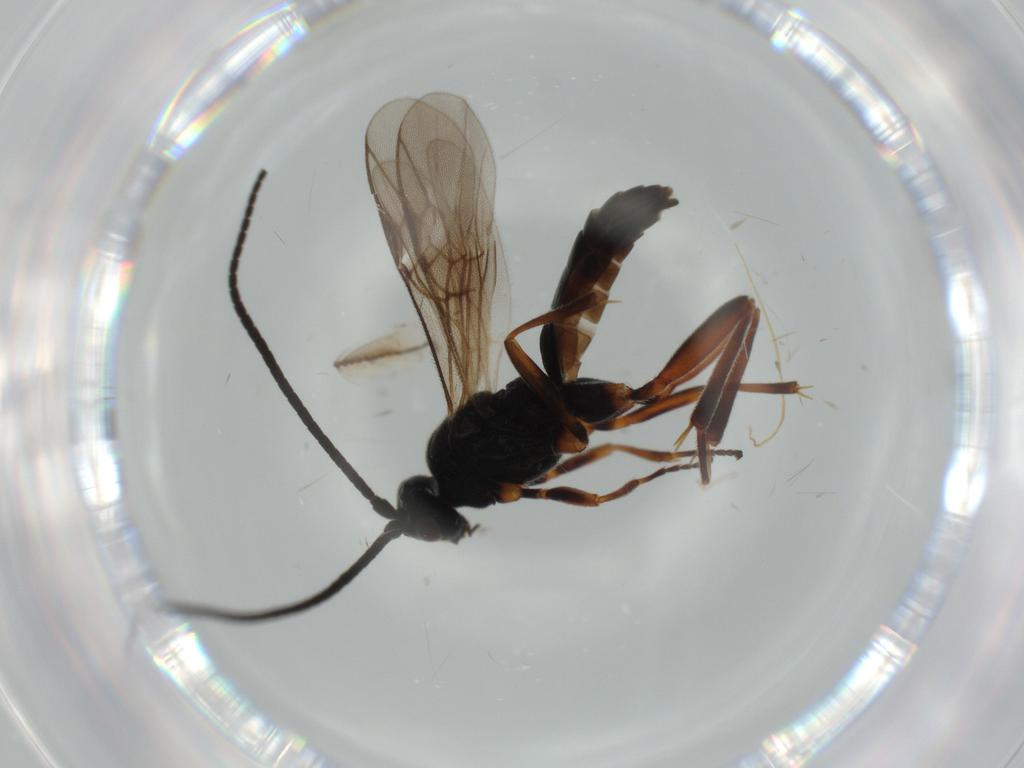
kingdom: Animalia
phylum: Arthropoda
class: Insecta
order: Hymenoptera
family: Braconidae
